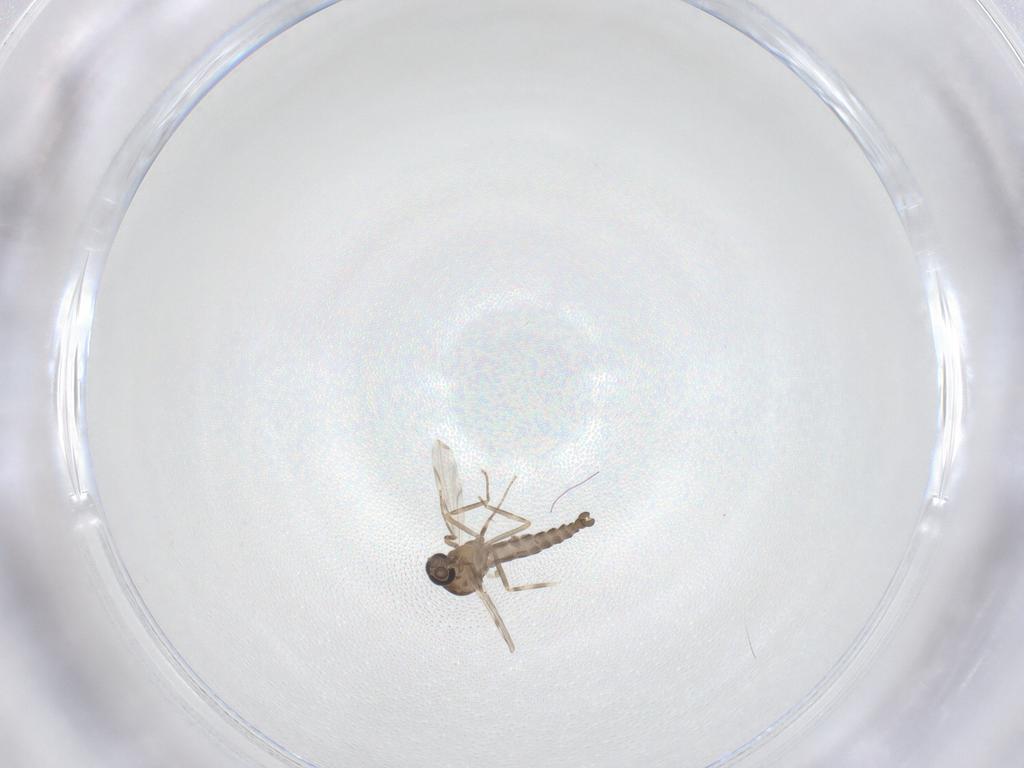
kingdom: Animalia
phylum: Arthropoda
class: Insecta
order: Diptera
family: Ceratopogonidae
